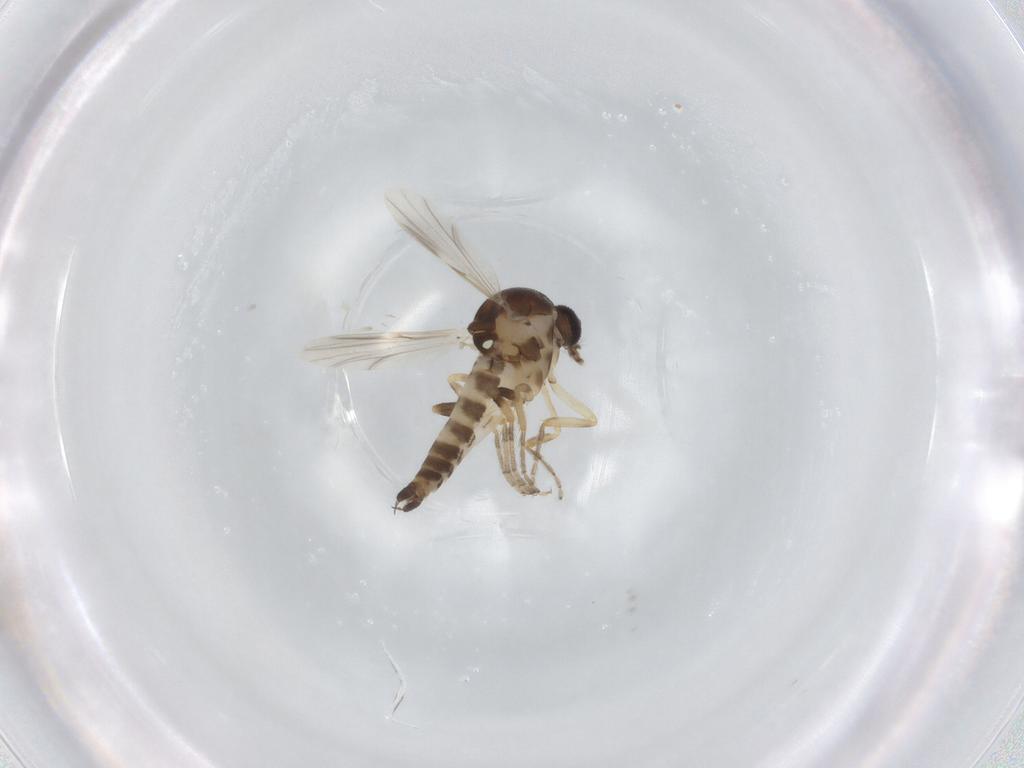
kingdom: Animalia
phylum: Arthropoda
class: Insecta
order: Diptera
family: Ceratopogonidae
